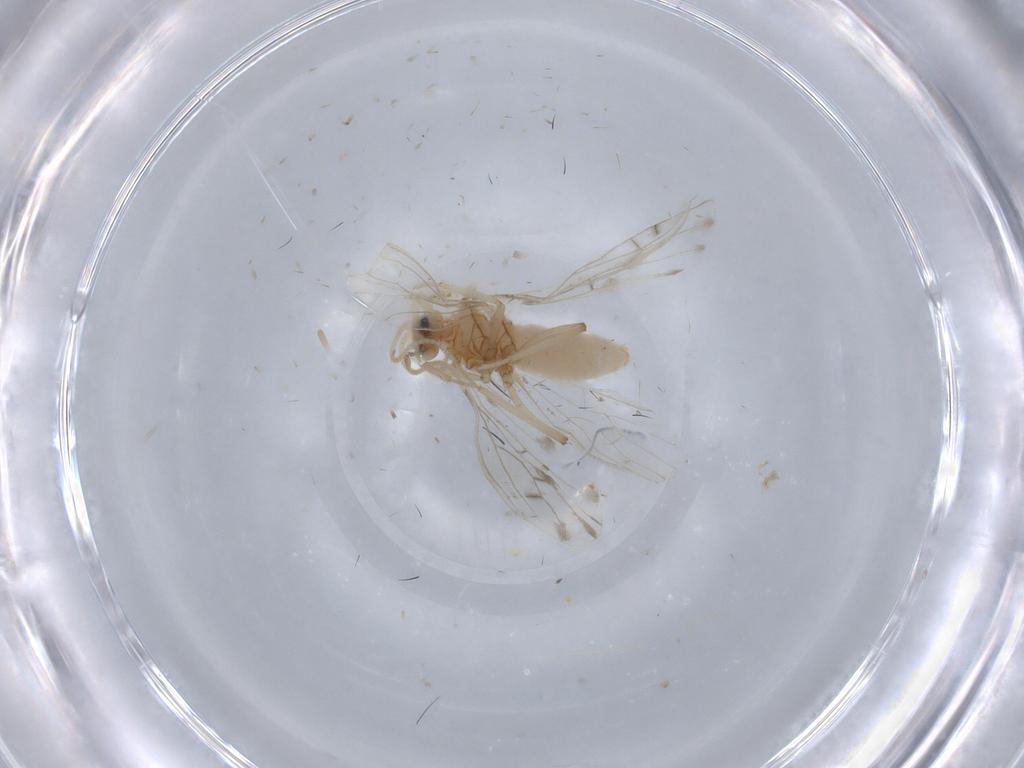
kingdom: Animalia
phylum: Arthropoda
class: Insecta
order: Neuroptera
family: Coniopterygidae
